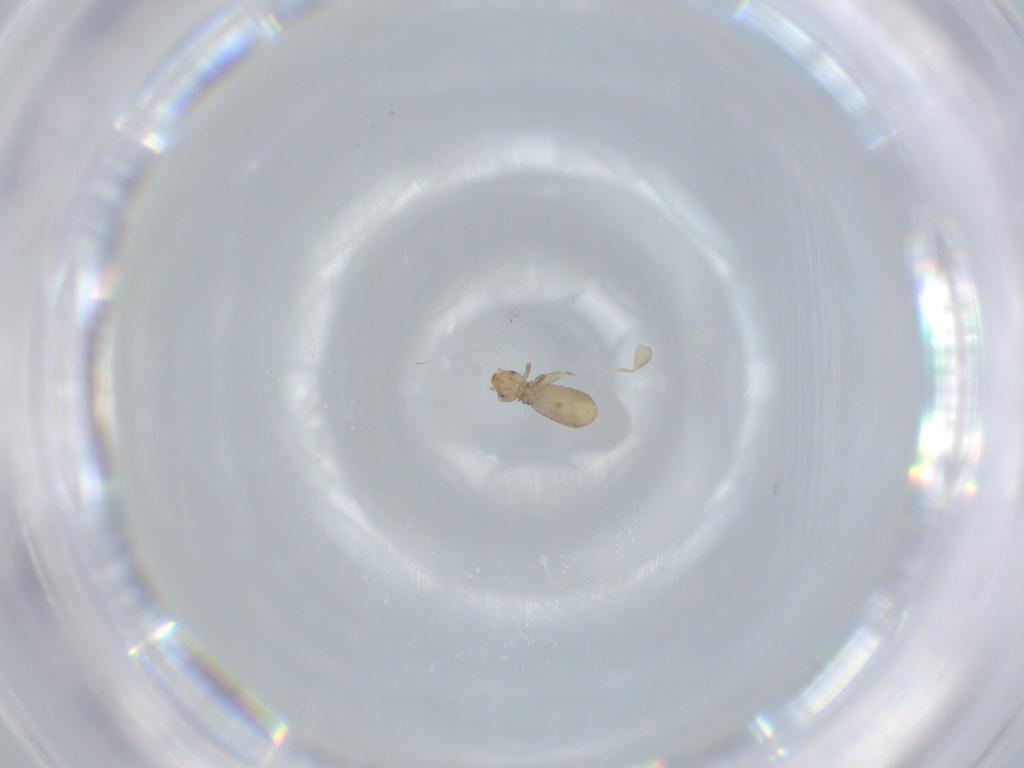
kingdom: Animalia
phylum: Arthropoda
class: Insecta
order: Psocodea
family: Liposcelididae
